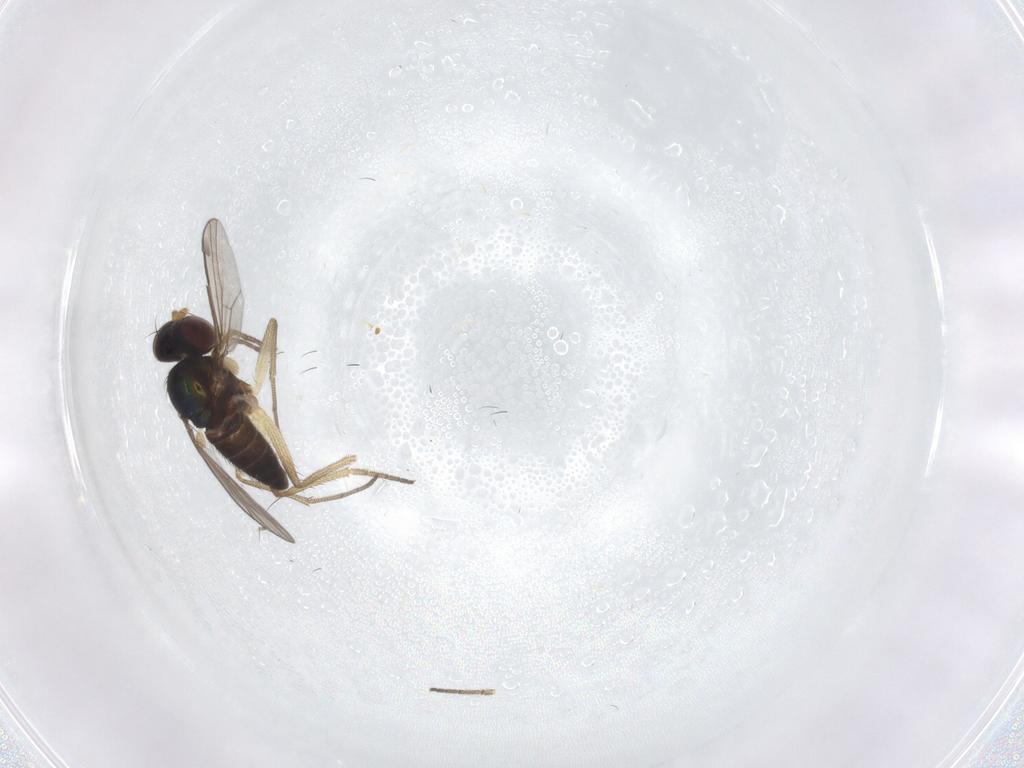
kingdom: Animalia
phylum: Arthropoda
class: Insecta
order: Diptera
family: Dolichopodidae
